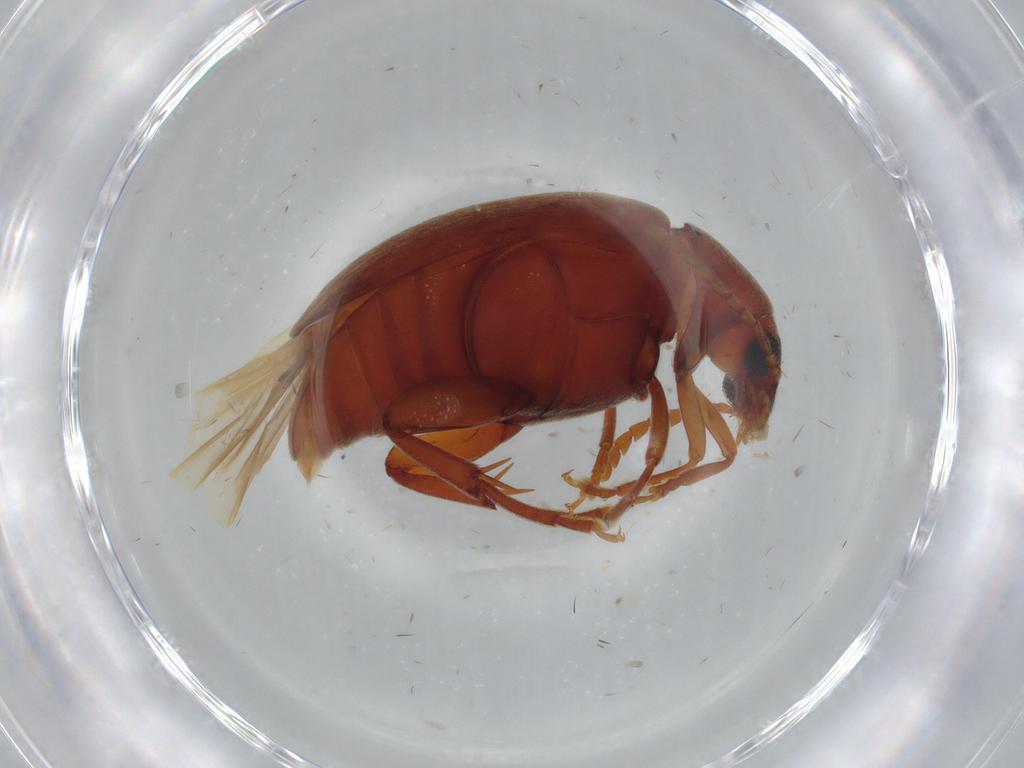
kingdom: Animalia
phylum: Arthropoda
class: Insecta
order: Coleoptera
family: Chrysomelidae
